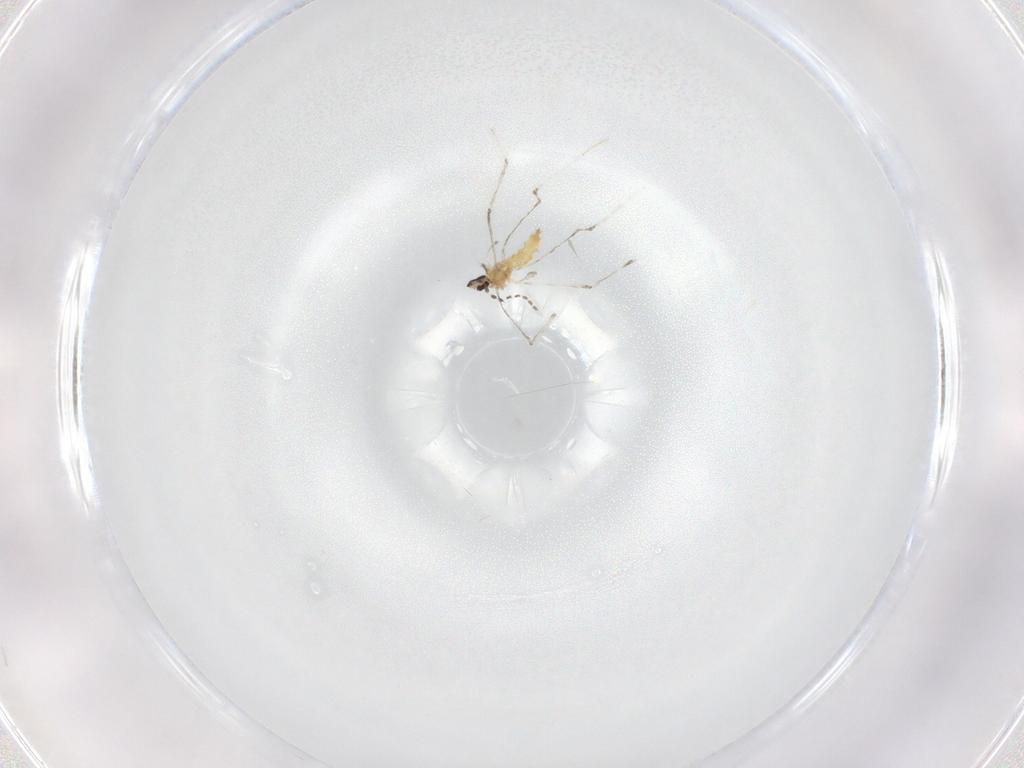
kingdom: Animalia
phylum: Arthropoda
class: Insecta
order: Diptera
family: Cecidomyiidae
